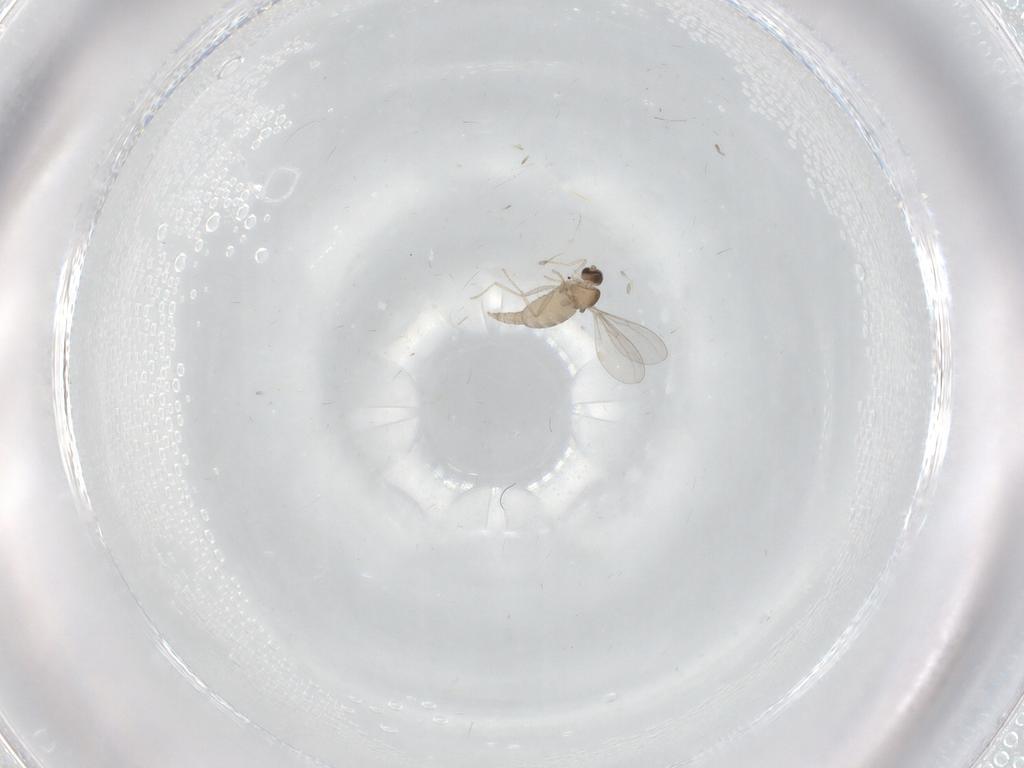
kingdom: Animalia
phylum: Arthropoda
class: Insecta
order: Diptera
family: Cecidomyiidae
